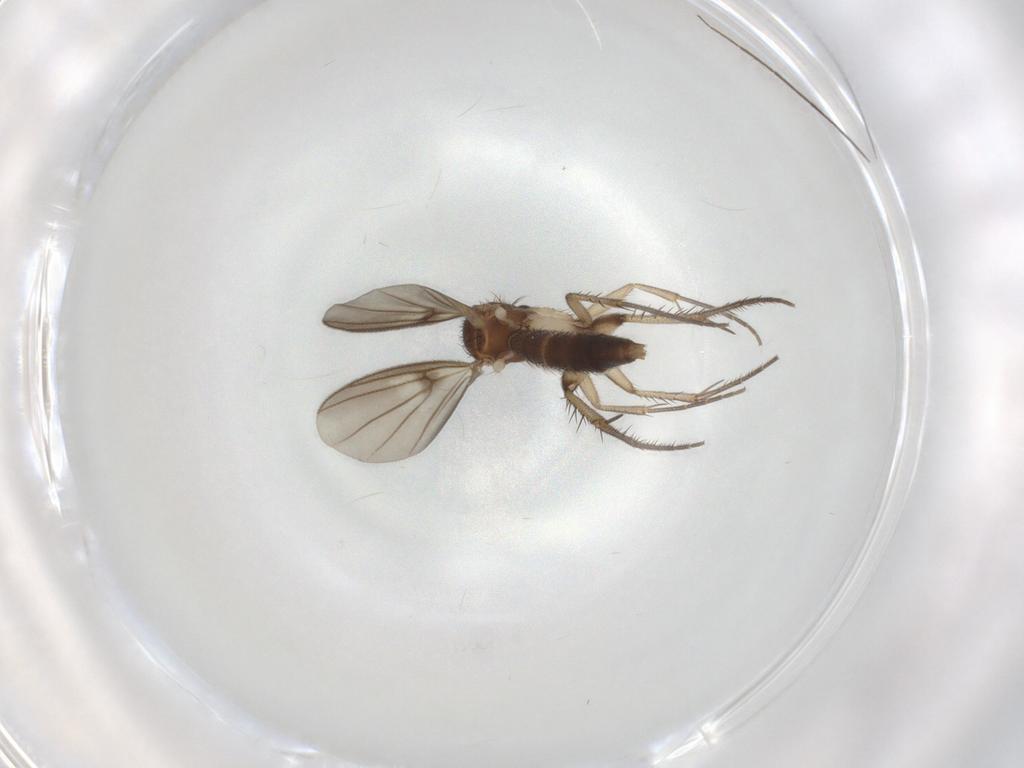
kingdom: Animalia
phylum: Arthropoda
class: Insecta
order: Diptera
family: Mycetophilidae
